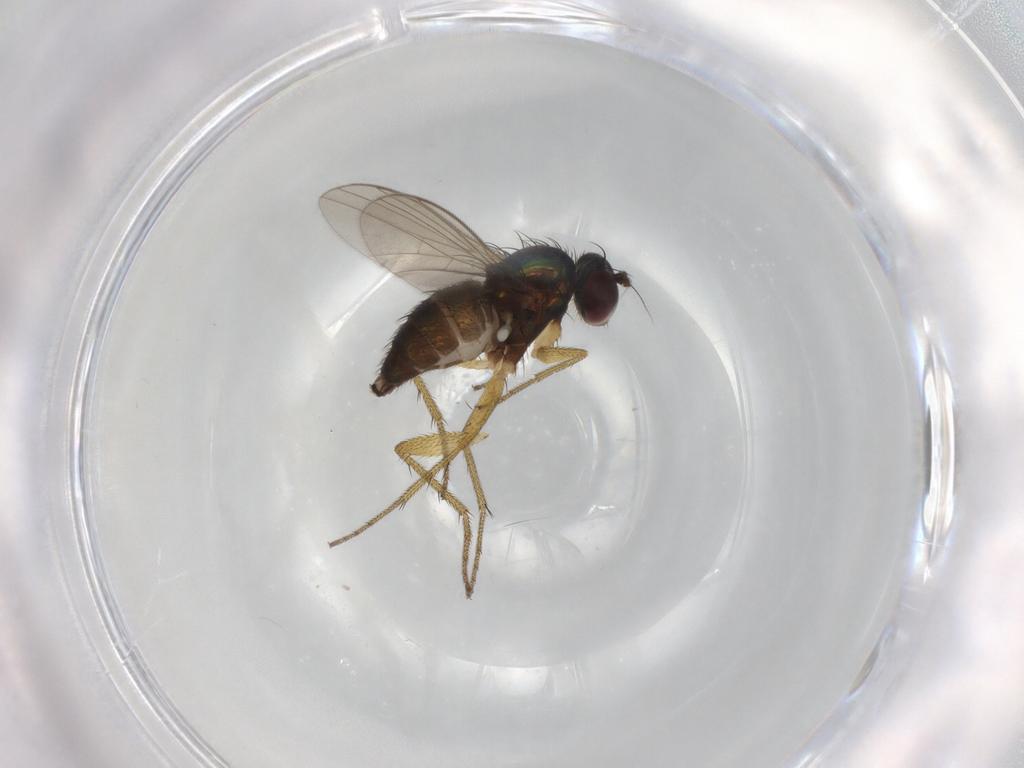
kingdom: Animalia
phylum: Arthropoda
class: Insecta
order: Diptera
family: Dolichopodidae
